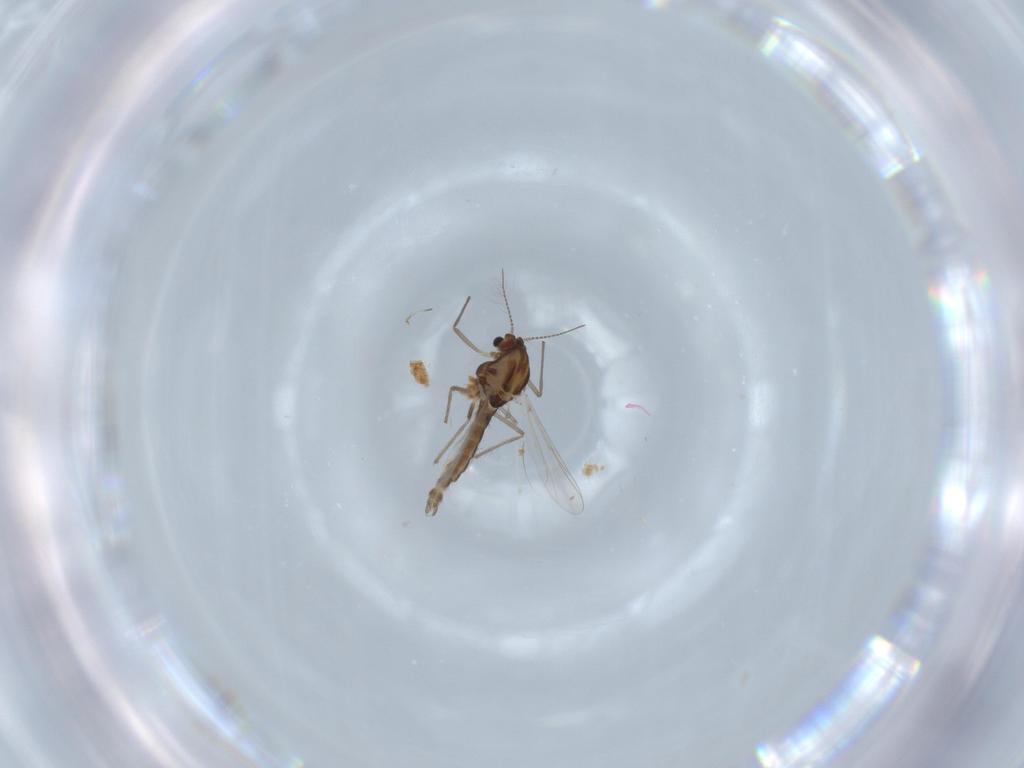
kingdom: Animalia
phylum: Arthropoda
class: Insecta
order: Diptera
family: Chironomidae
